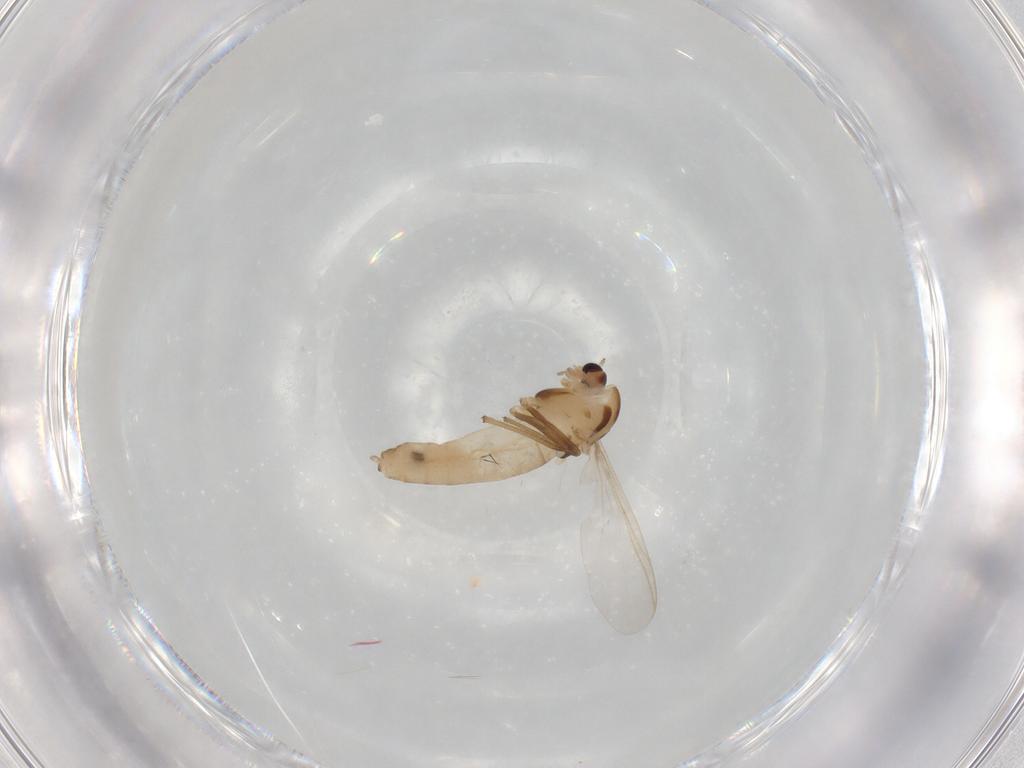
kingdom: Animalia
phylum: Arthropoda
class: Insecta
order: Diptera
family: Chironomidae
